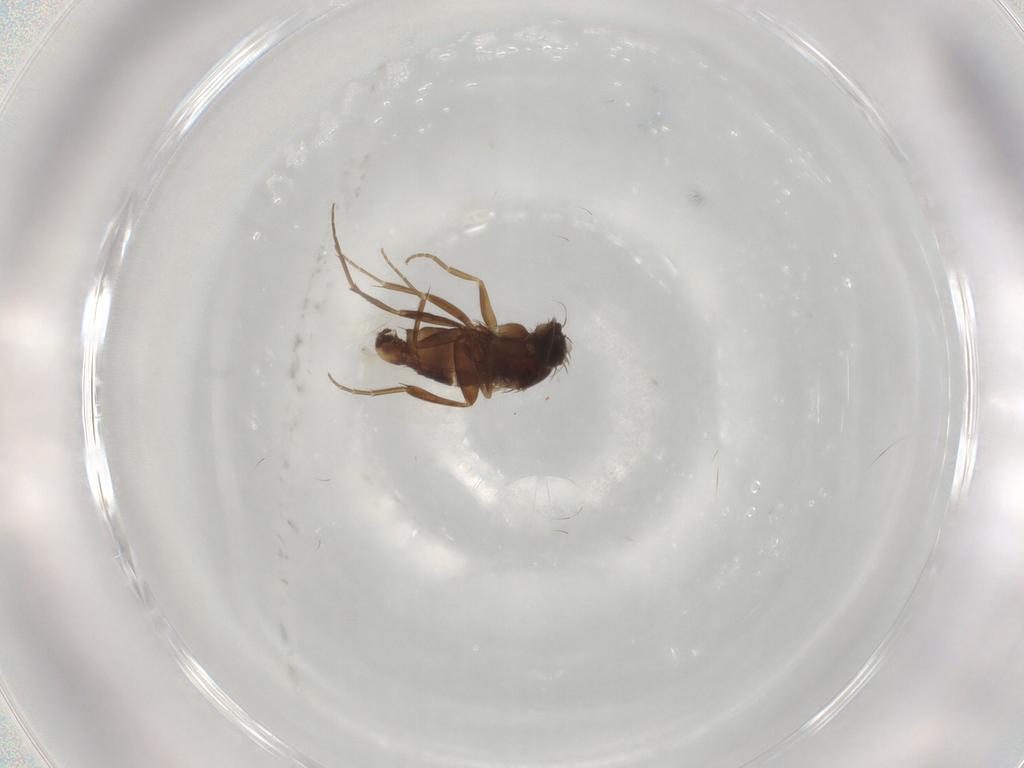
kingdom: Animalia
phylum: Arthropoda
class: Insecta
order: Diptera
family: Phoridae
